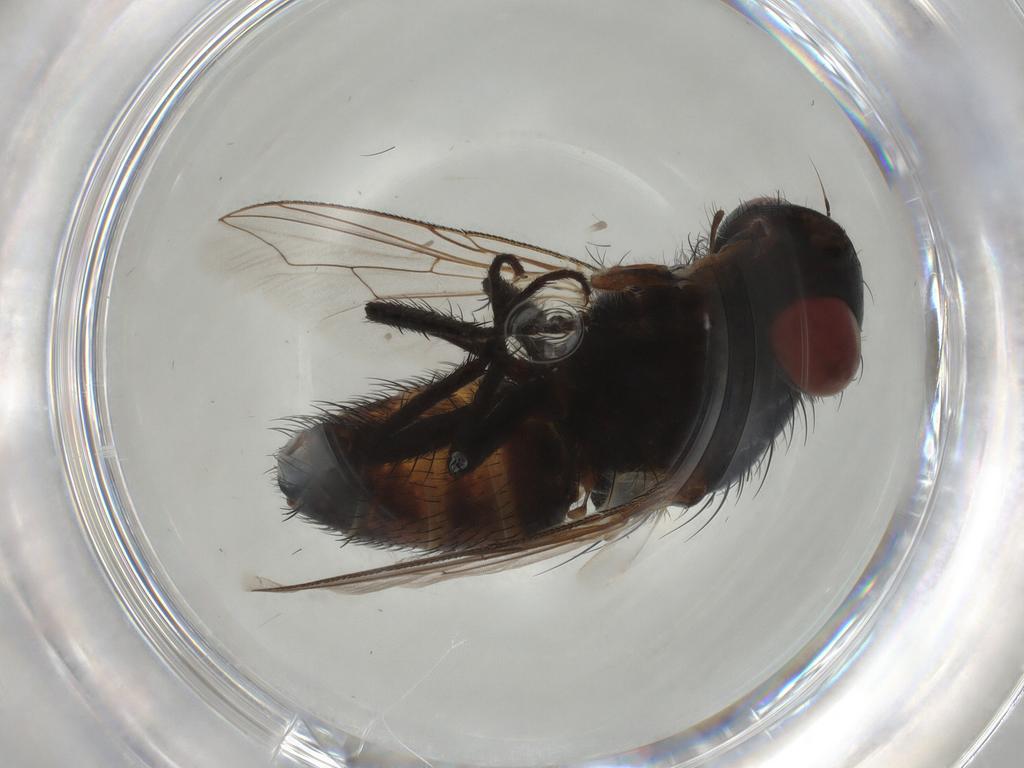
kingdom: Animalia
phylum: Arthropoda
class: Insecta
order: Diptera
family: Sarcophagidae
